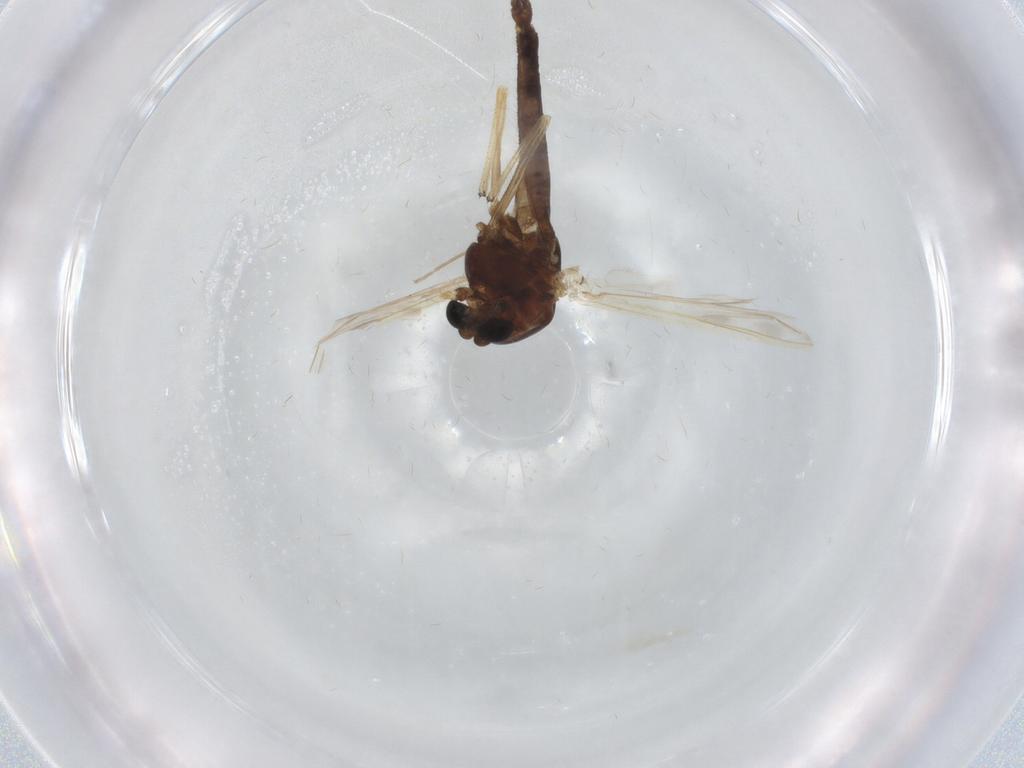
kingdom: Animalia
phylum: Arthropoda
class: Insecta
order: Diptera
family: Chironomidae
